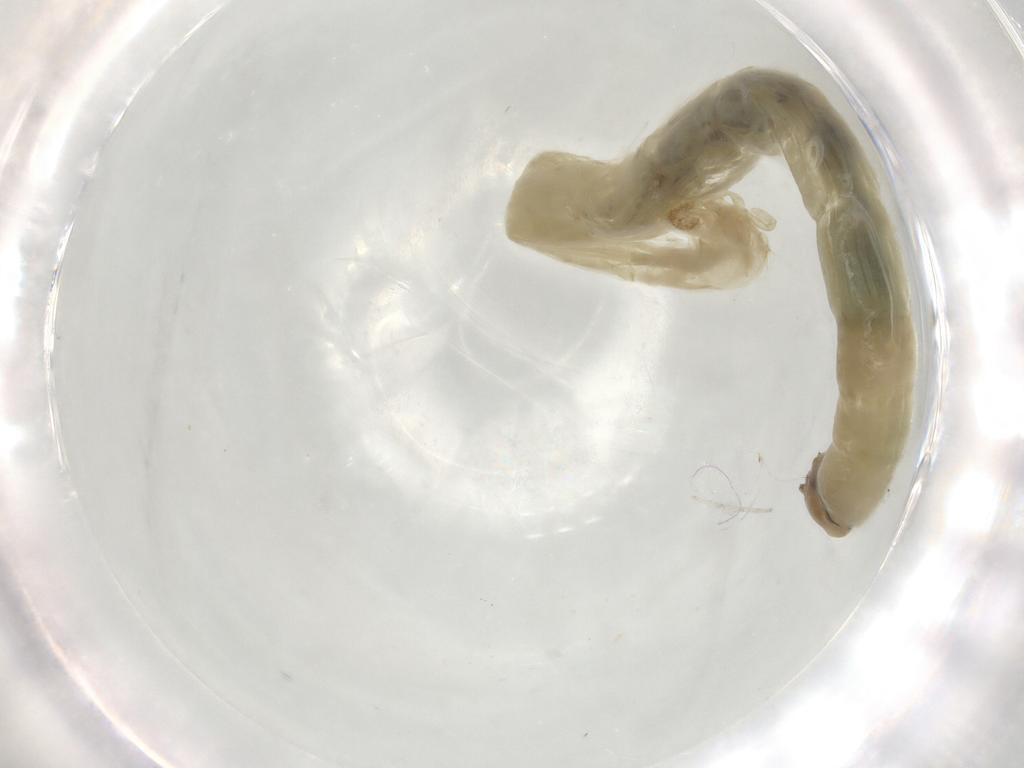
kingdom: Animalia
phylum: Arthropoda
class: Insecta
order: Diptera
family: Chironomidae
